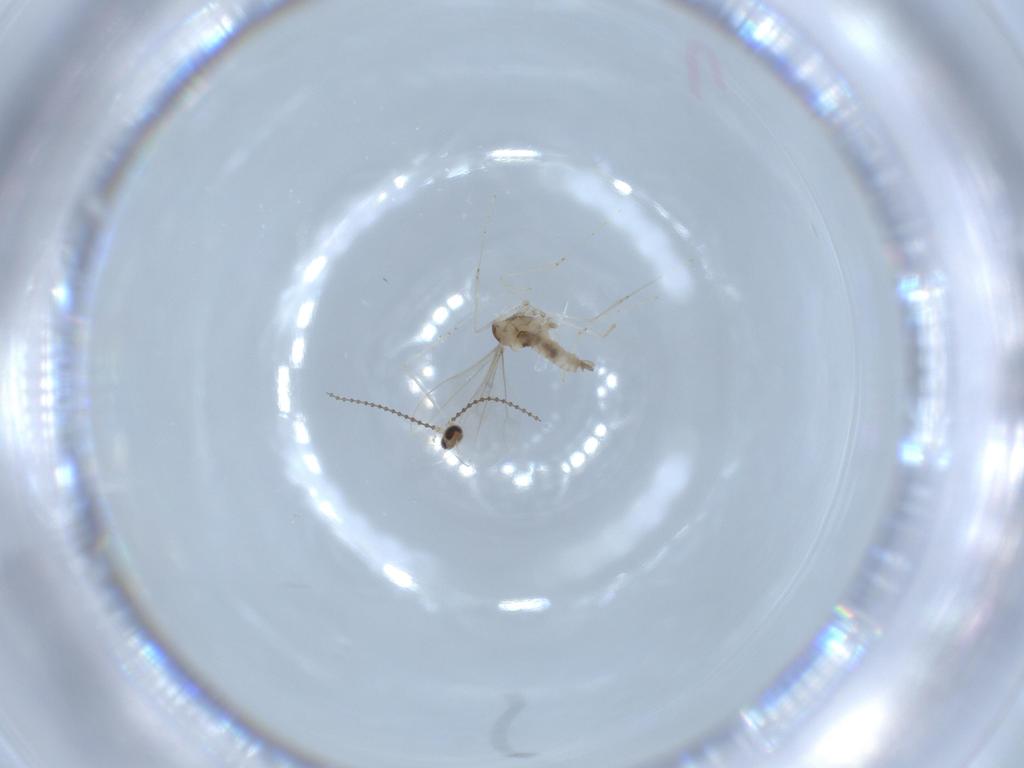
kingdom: Animalia
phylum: Arthropoda
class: Insecta
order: Diptera
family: Cecidomyiidae
